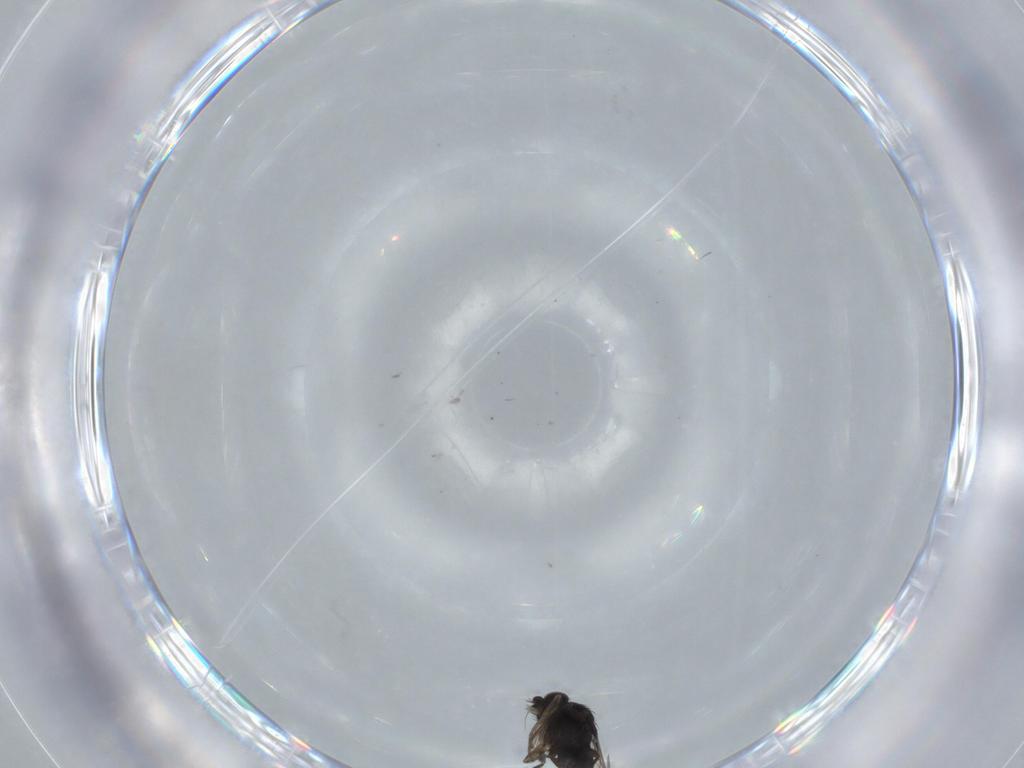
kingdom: Animalia
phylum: Arthropoda
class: Insecta
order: Diptera
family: Phoridae
